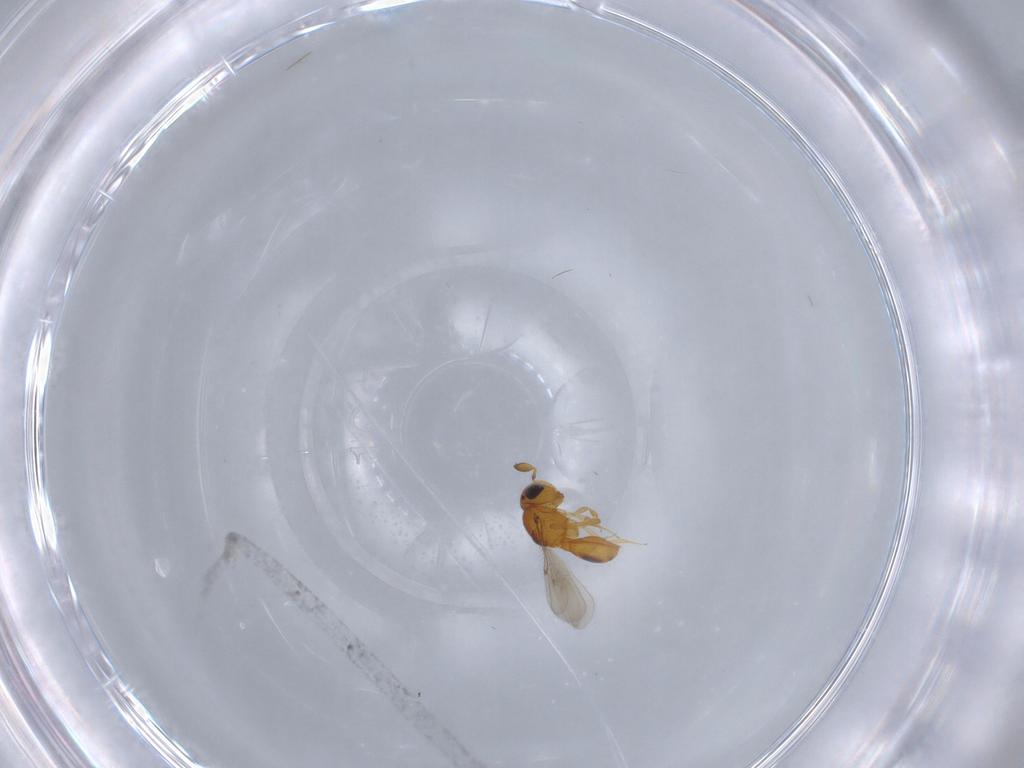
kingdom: Animalia
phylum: Arthropoda
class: Insecta
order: Hymenoptera
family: Scelionidae
